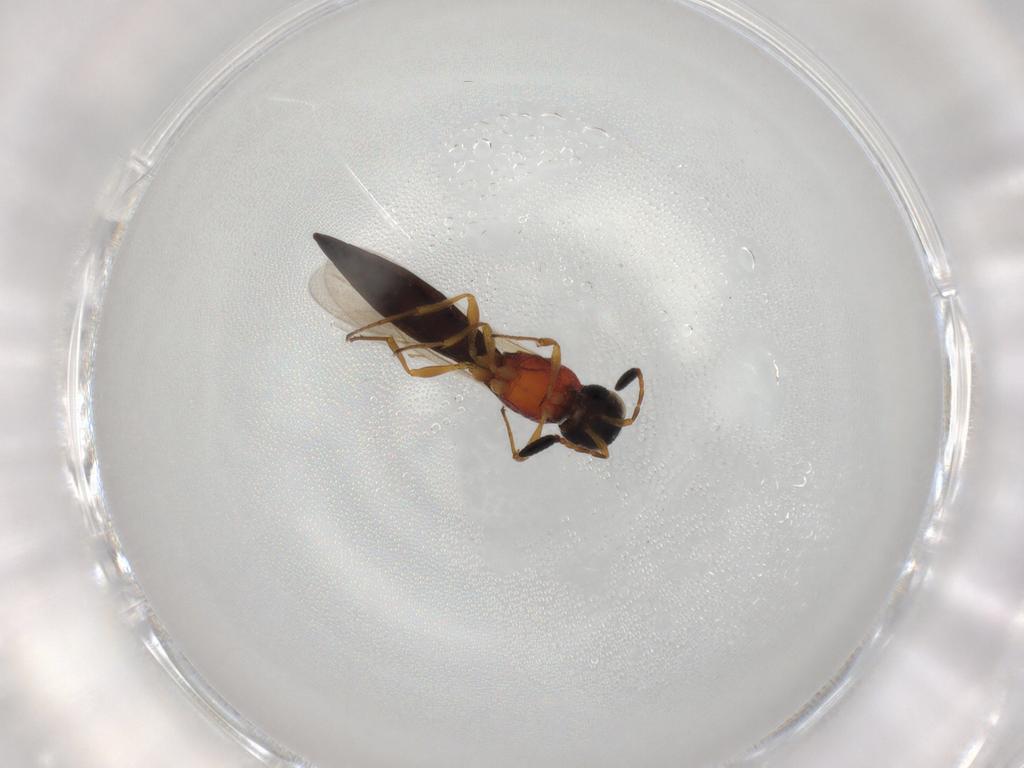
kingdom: Animalia
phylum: Arthropoda
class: Insecta
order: Hymenoptera
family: Scelionidae
